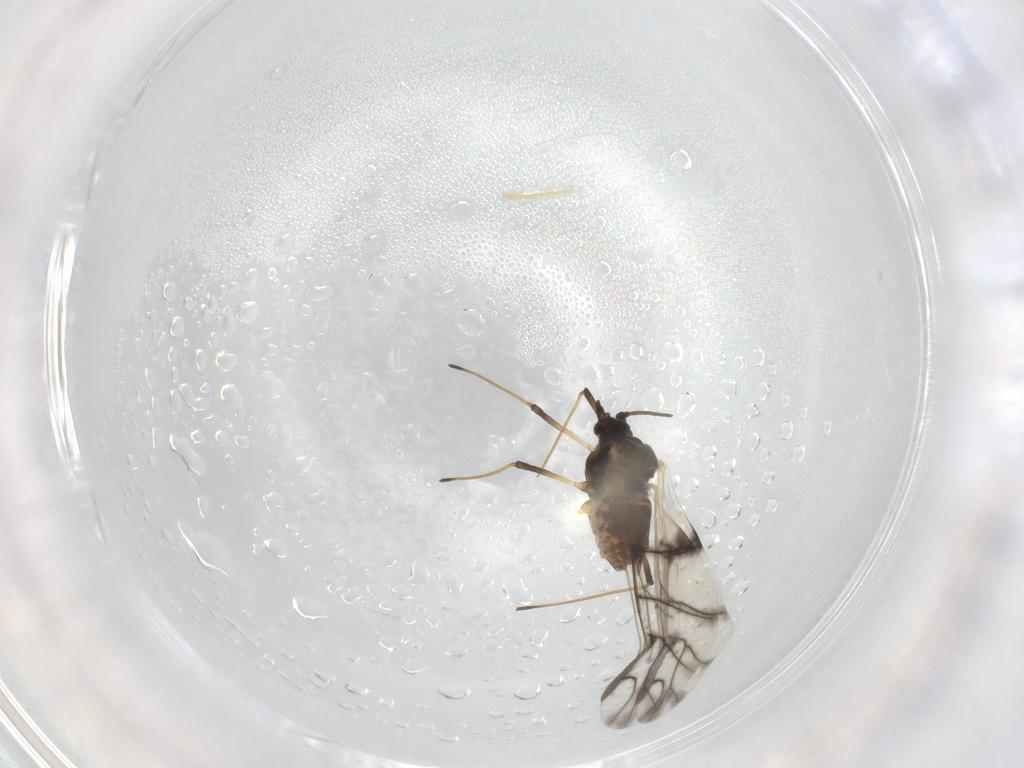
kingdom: Animalia
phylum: Arthropoda
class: Insecta
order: Hemiptera
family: Aphididae
